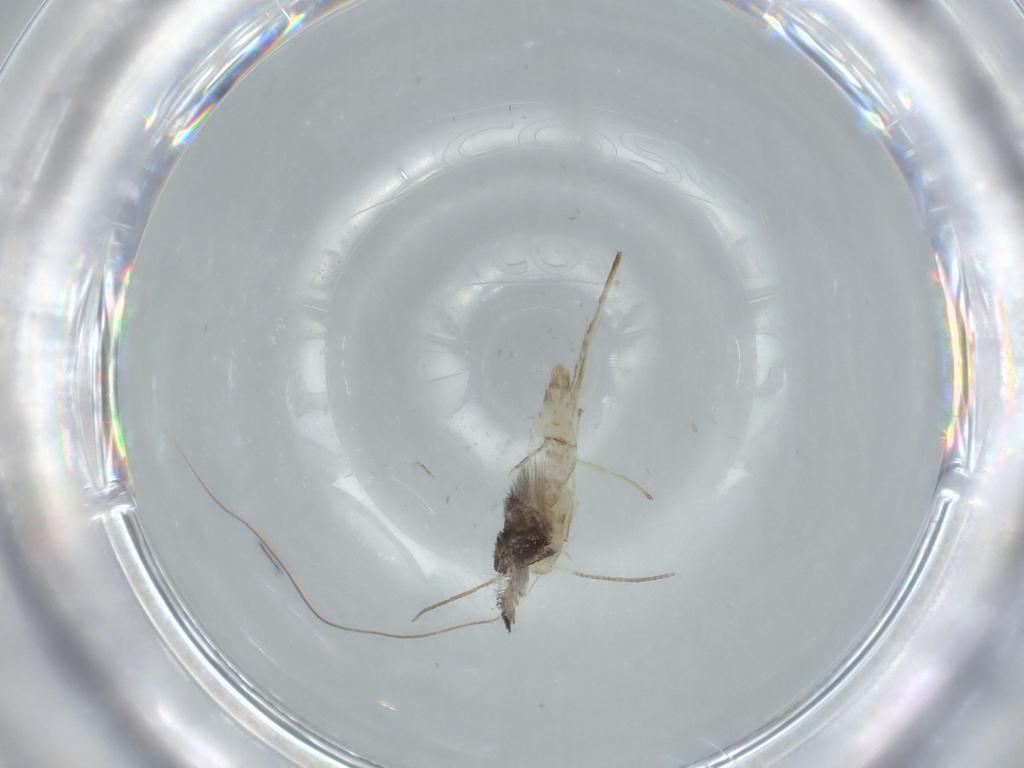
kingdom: Animalia
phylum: Arthropoda
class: Insecta
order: Lepidoptera
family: Gracillariidae
